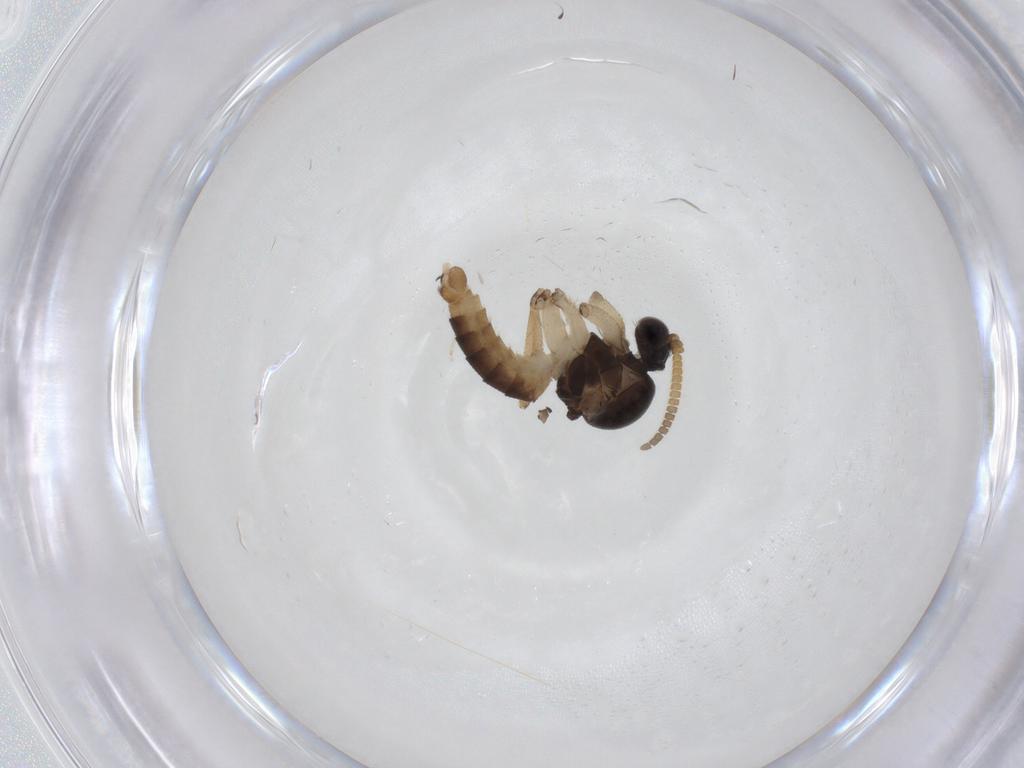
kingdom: Animalia
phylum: Arthropoda
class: Insecta
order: Diptera
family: Mycetophilidae
